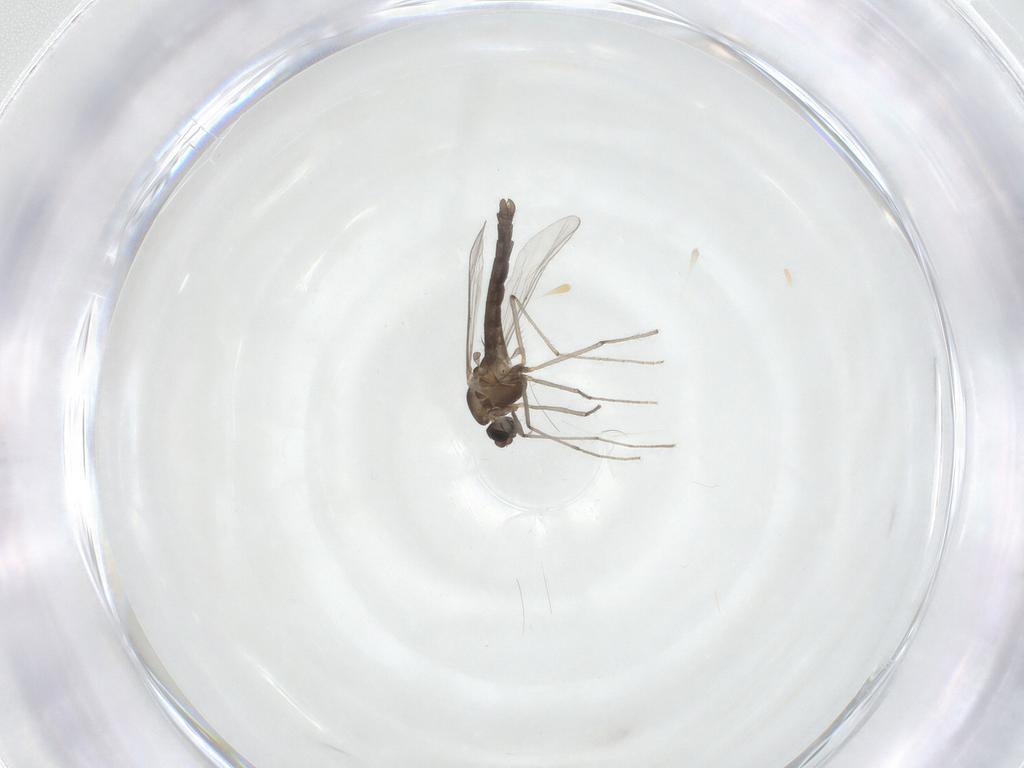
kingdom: Animalia
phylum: Arthropoda
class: Insecta
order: Diptera
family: Chironomidae
